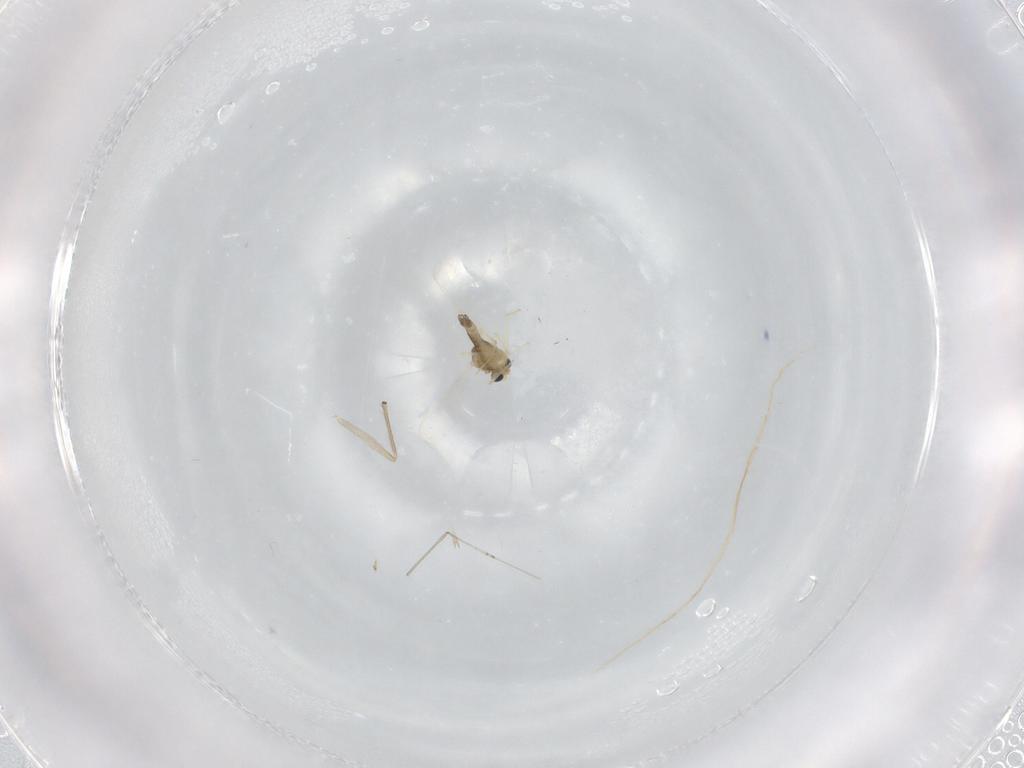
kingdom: Animalia
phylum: Arthropoda
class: Insecta
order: Diptera
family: Chironomidae
